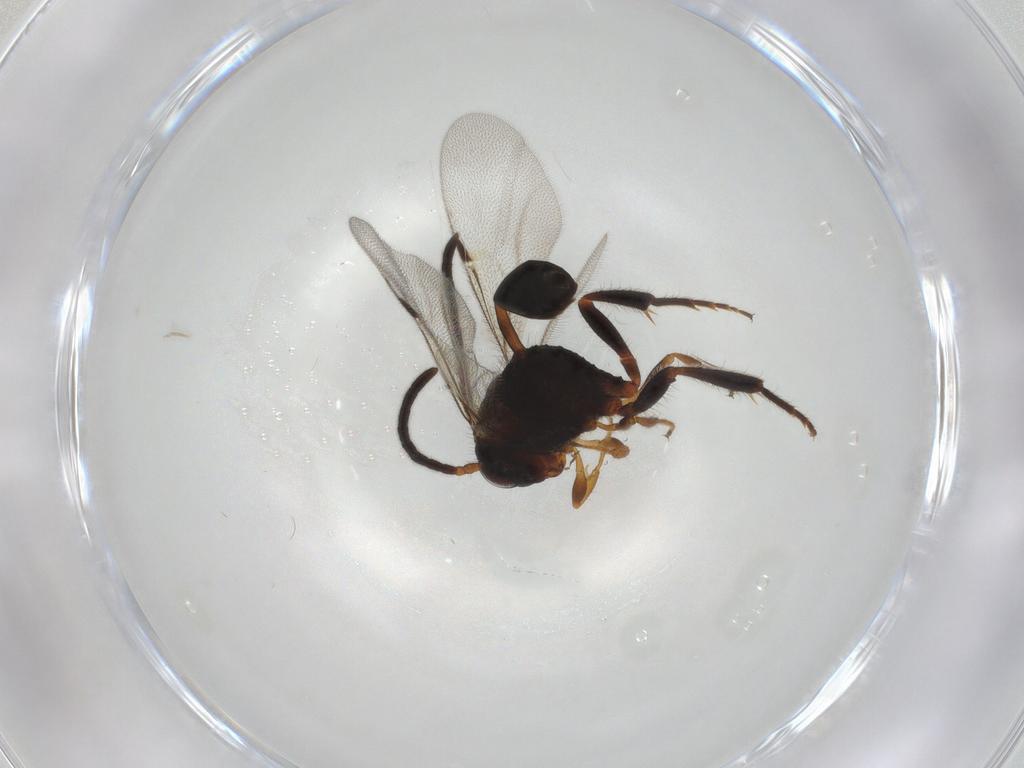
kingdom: Animalia
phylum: Arthropoda
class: Insecta
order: Hymenoptera
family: Evaniidae
